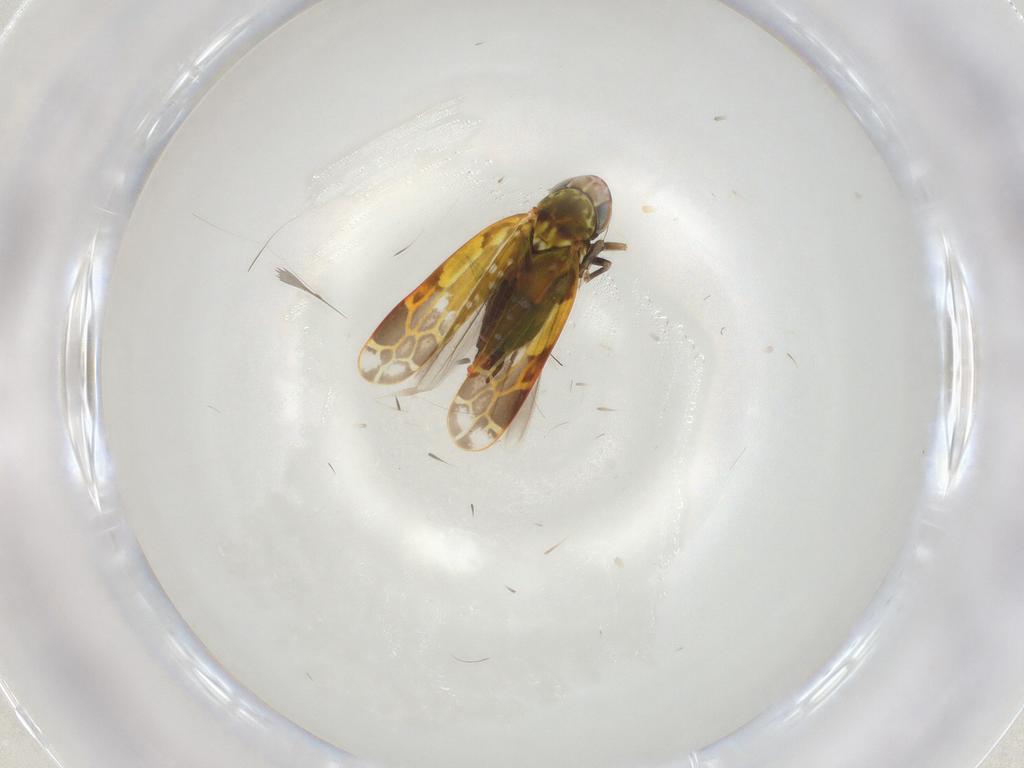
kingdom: Animalia
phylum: Arthropoda
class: Insecta
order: Hemiptera
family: Cicadellidae
